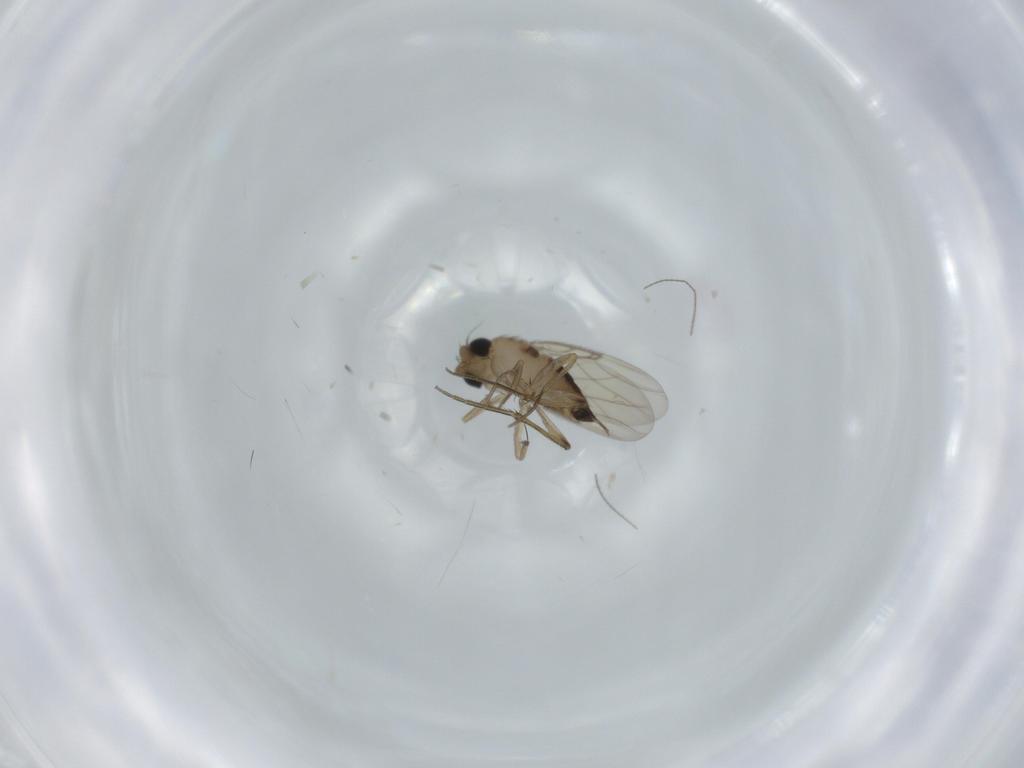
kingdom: Animalia
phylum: Arthropoda
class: Insecta
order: Diptera
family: Phoridae
